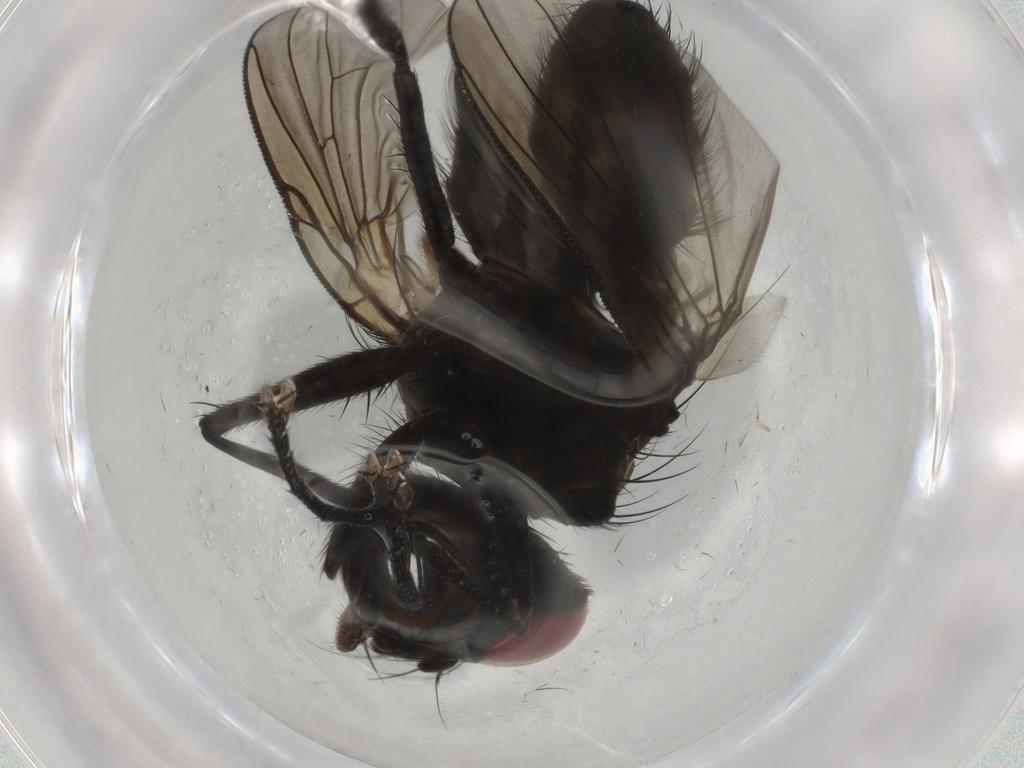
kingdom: Animalia
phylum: Arthropoda
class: Insecta
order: Diptera
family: Muscidae
